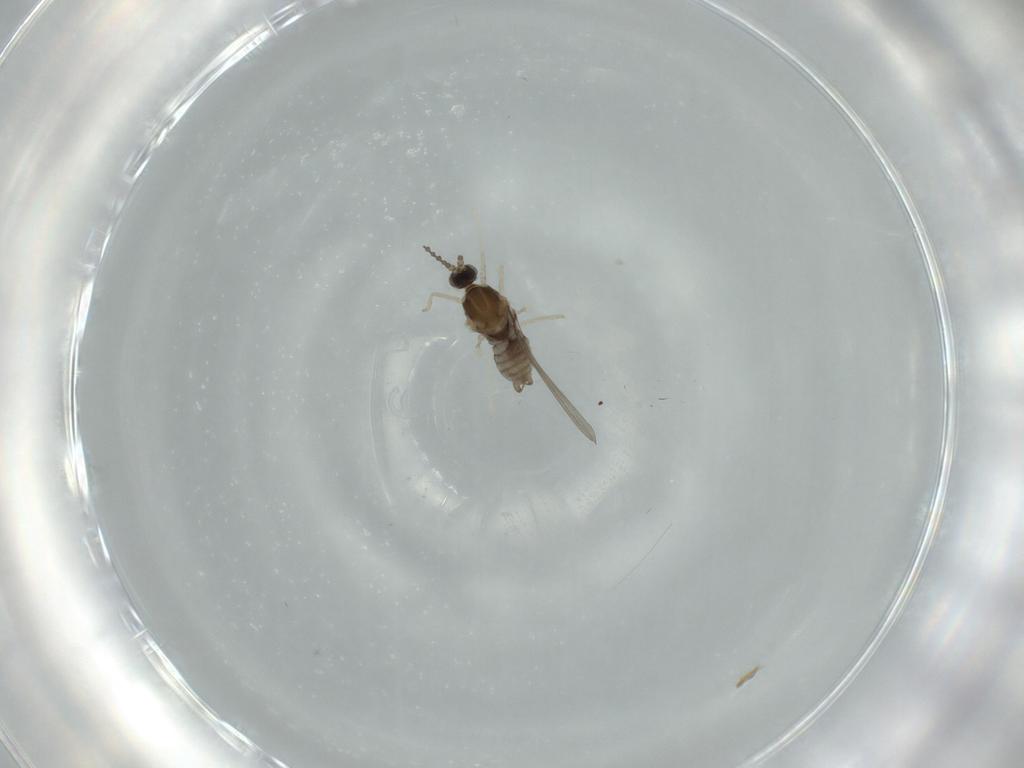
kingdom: Animalia
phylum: Arthropoda
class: Insecta
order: Diptera
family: Cecidomyiidae
